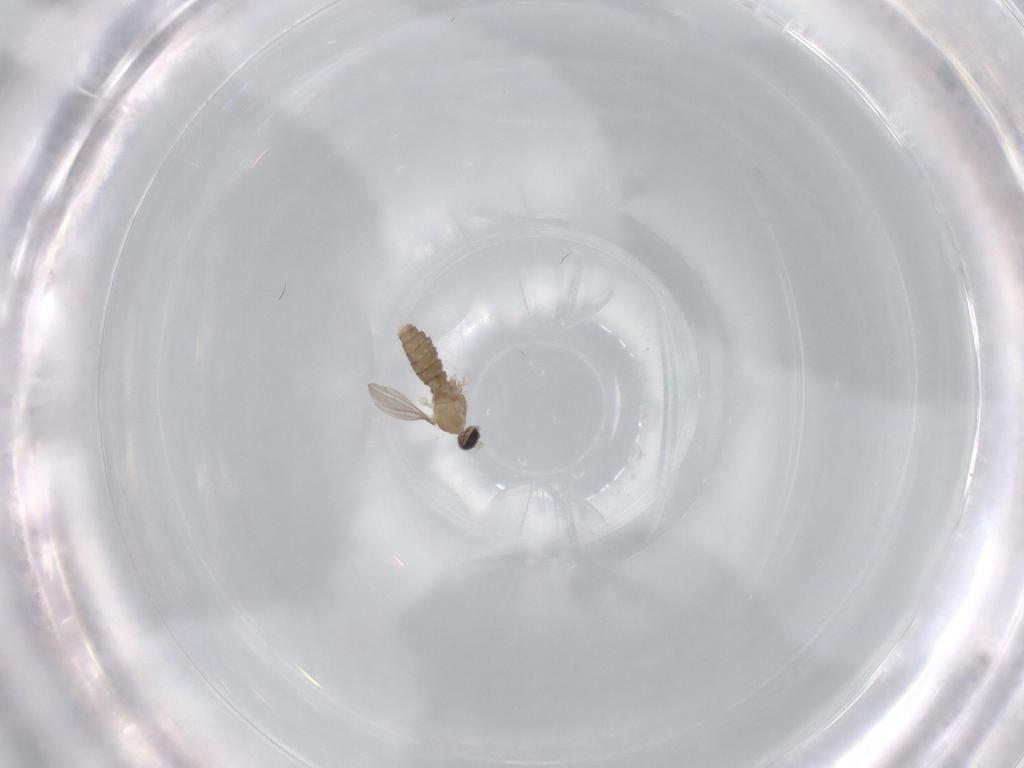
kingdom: Animalia
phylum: Arthropoda
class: Insecta
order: Diptera
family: Cecidomyiidae
